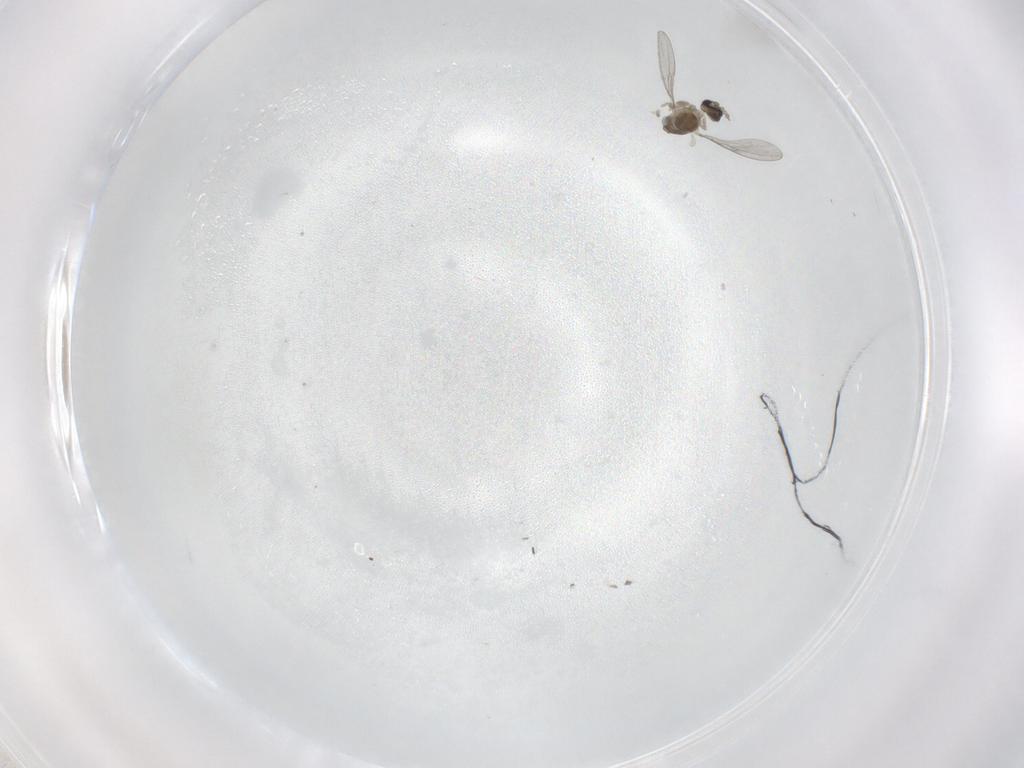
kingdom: Animalia
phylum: Arthropoda
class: Insecta
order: Diptera
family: Cecidomyiidae
